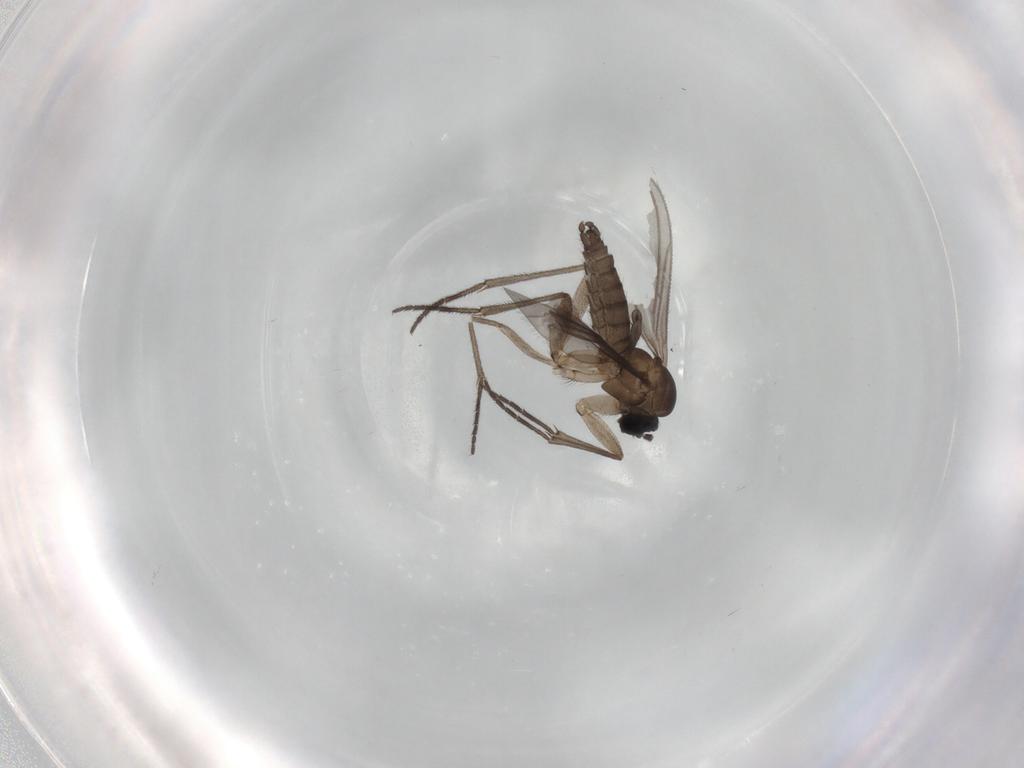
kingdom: Animalia
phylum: Arthropoda
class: Insecta
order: Diptera
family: Sciaridae
